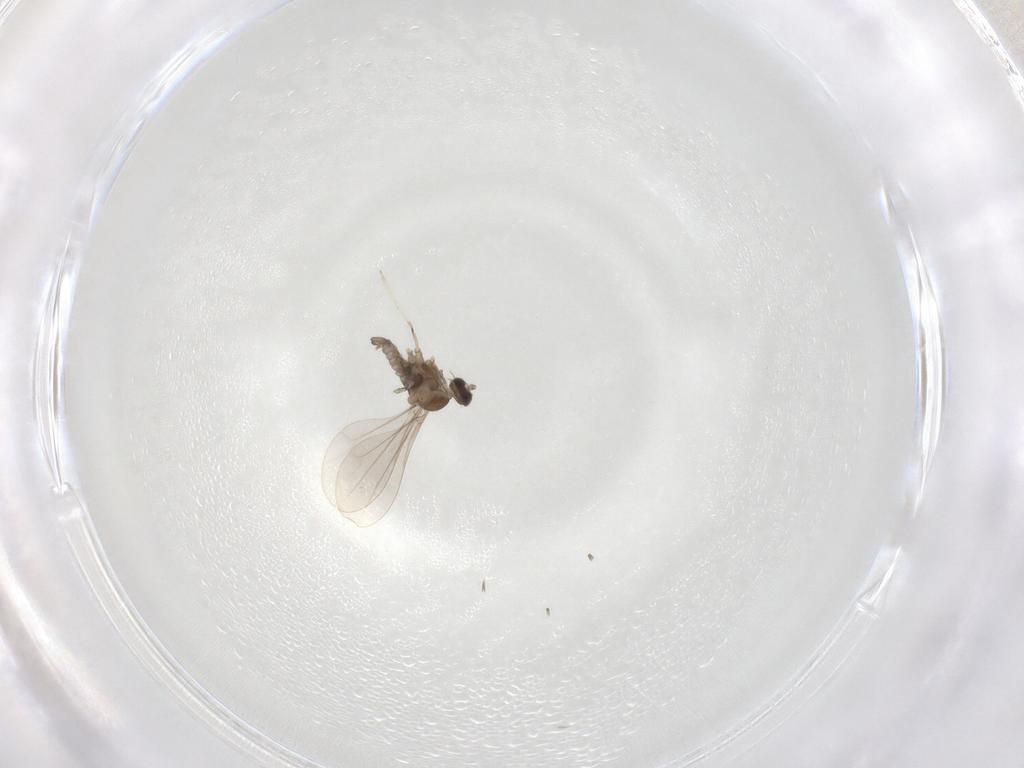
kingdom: Animalia
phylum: Arthropoda
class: Insecta
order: Diptera
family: Cecidomyiidae
